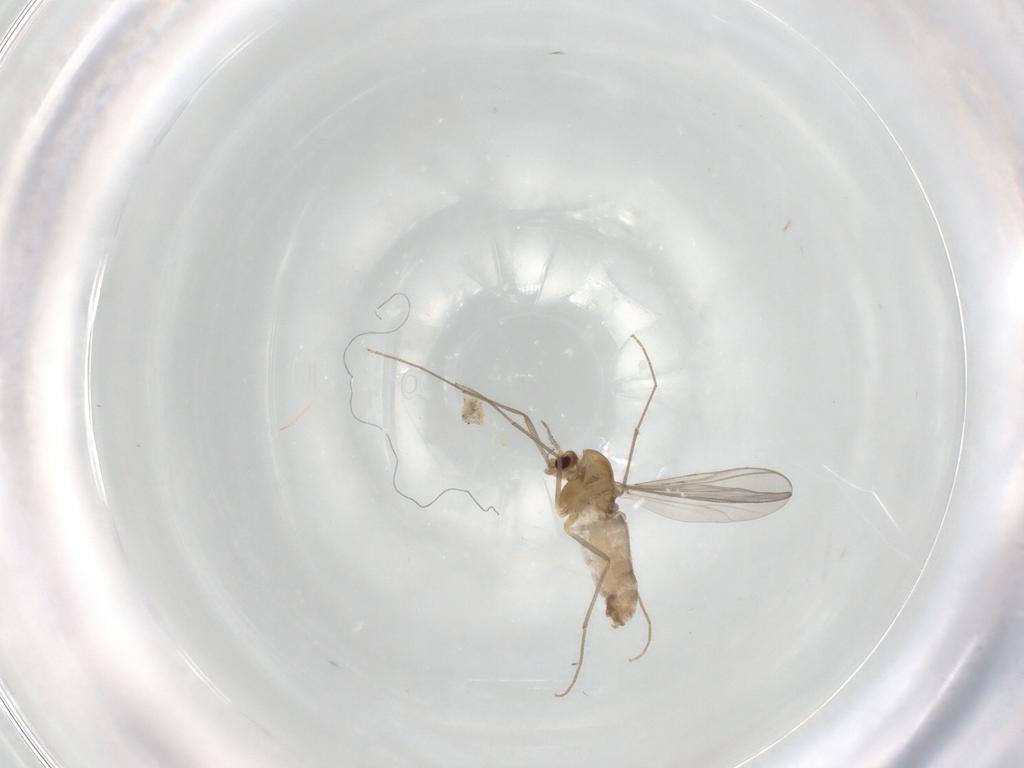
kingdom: Animalia
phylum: Arthropoda
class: Insecta
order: Diptera
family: Sciaridae
